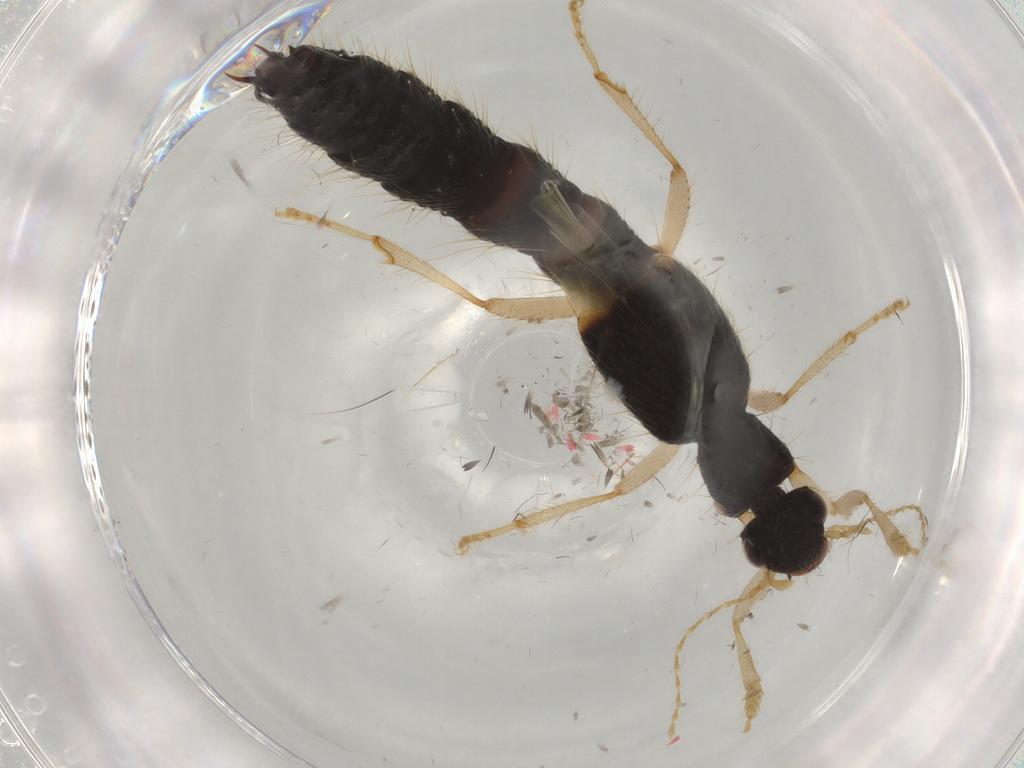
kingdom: Animalia
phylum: Arthropoda
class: Insecta
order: Coleoptera
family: Staphylinidae
